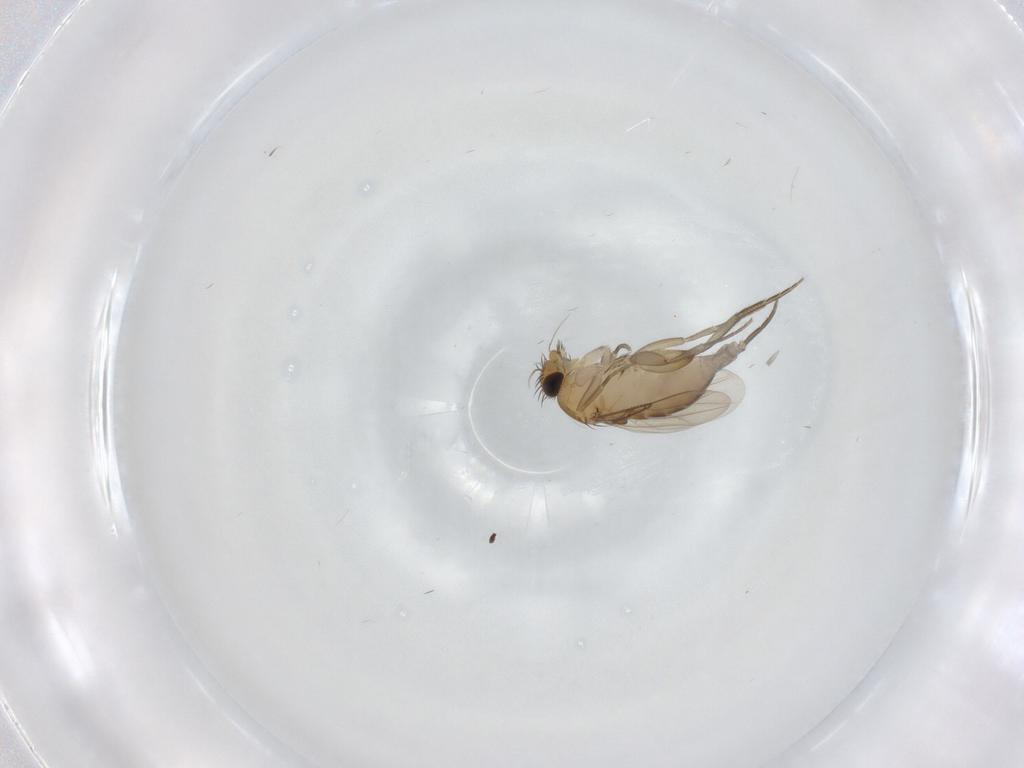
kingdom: Animalia
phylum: Arthropoda
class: Insecta
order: Diptera
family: Phoridae
